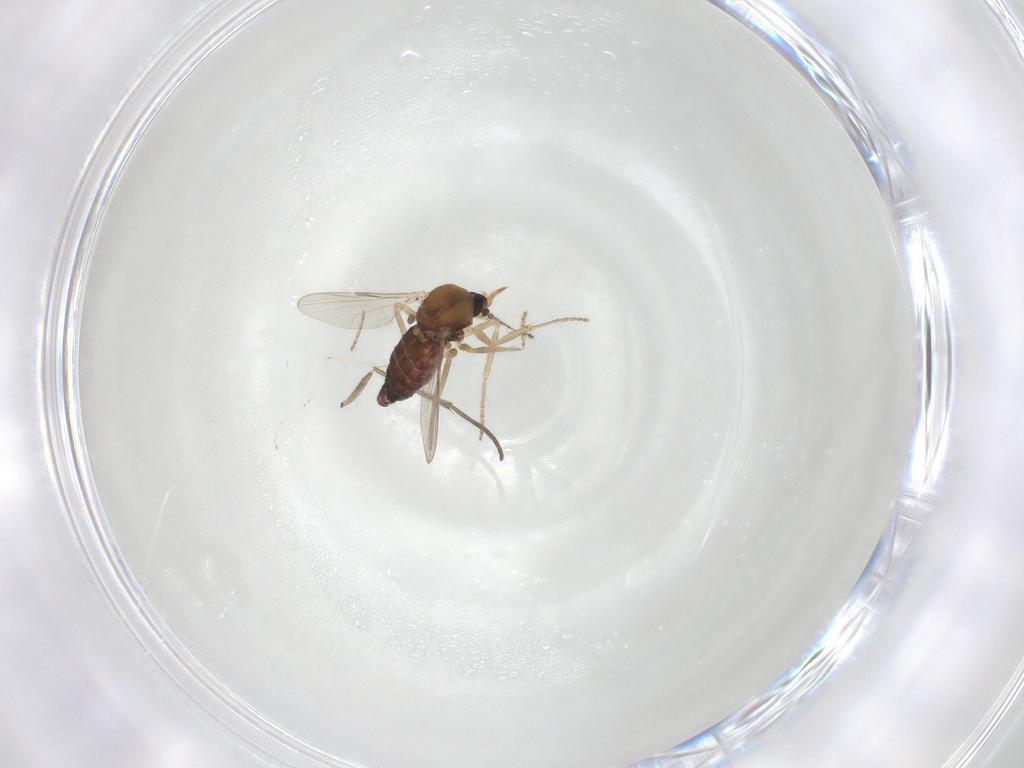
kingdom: Animalia
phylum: Arthropoda
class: Insecta
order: Diptera
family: Ceratopogonidae
